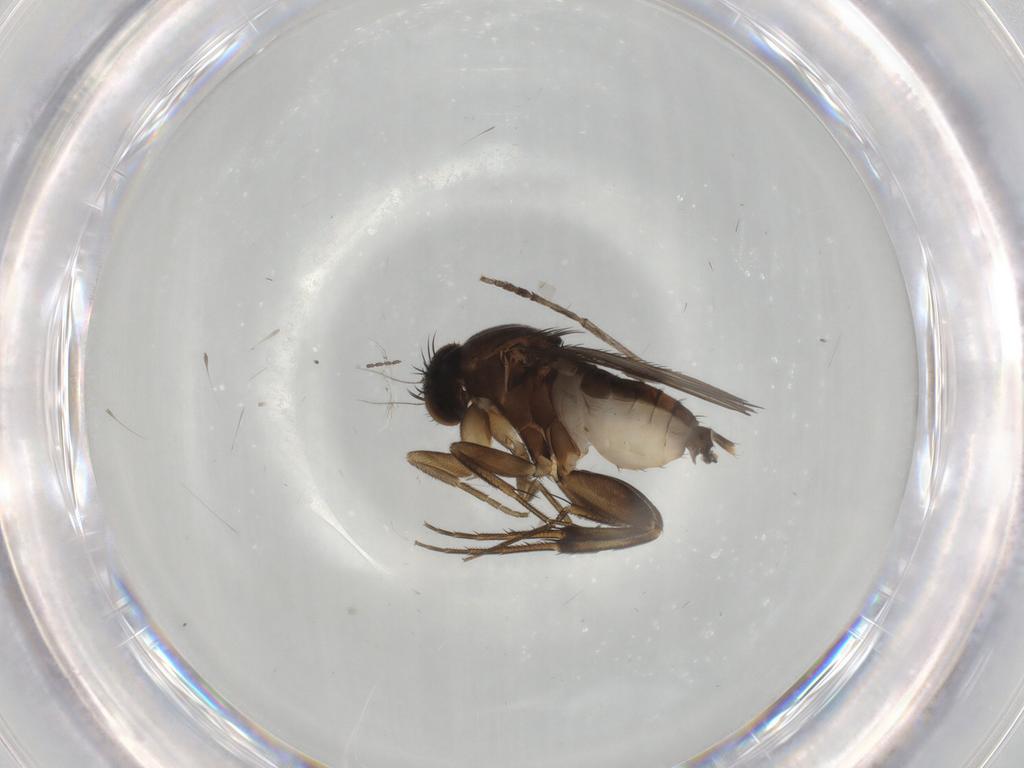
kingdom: Animalia
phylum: Arthropoda
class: Insecta
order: Diptera
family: Phoridae
